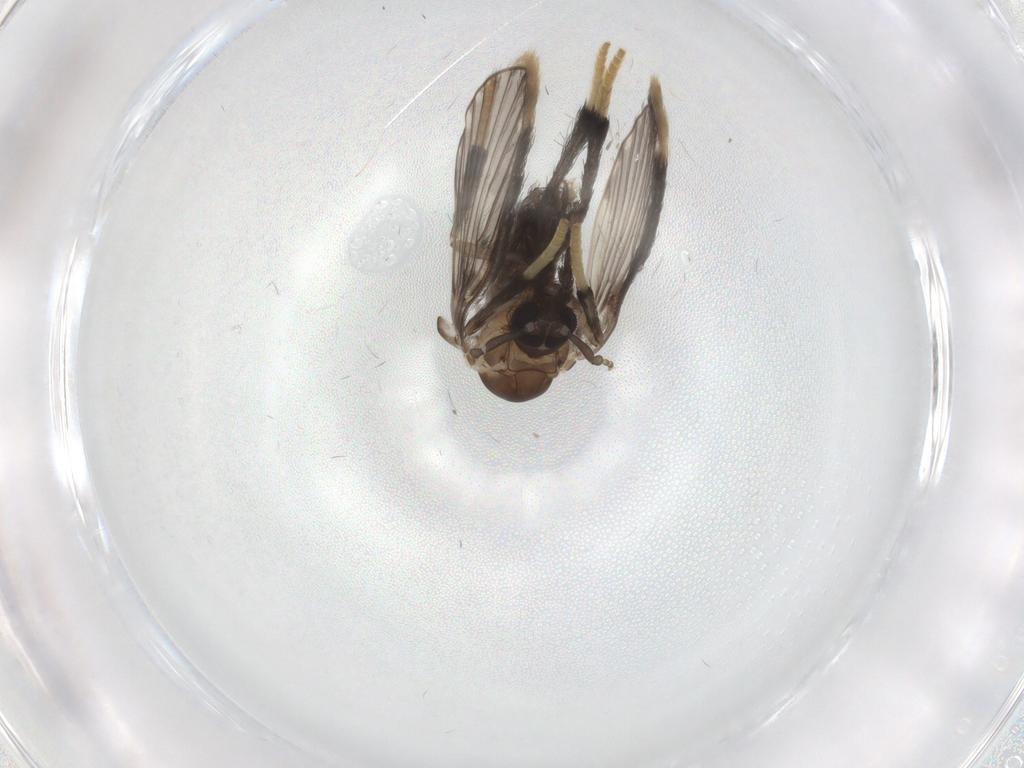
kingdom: Animalia
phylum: Arthropoda
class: Insecta
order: Diptera
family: Psychodidae
